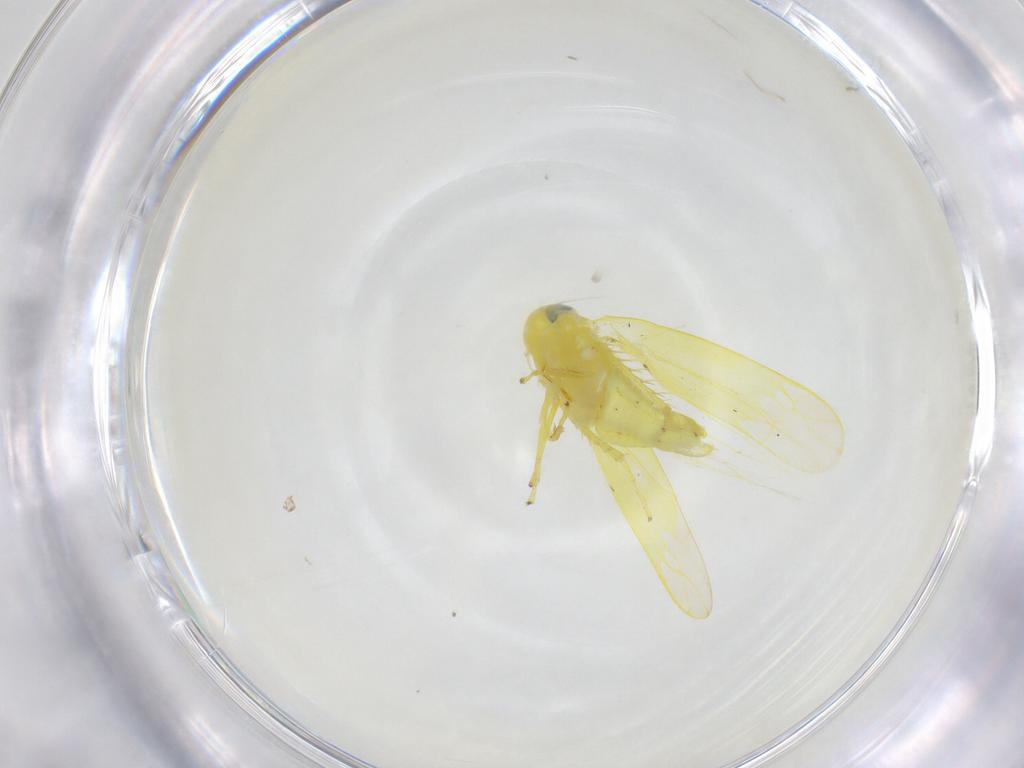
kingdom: Animalia
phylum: Arthropoda
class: Insecta
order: Hemiptera
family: Cicadellidae
